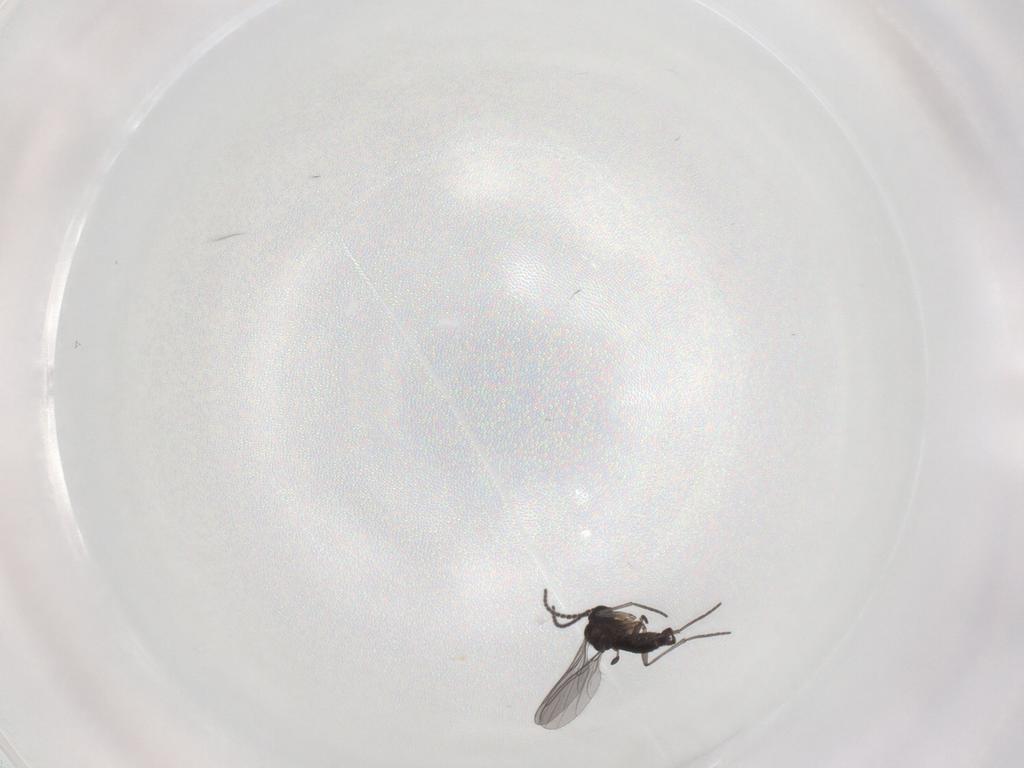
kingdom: Animalia
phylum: Arthropoda
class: Insecta
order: Diptera
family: Sciaridae
